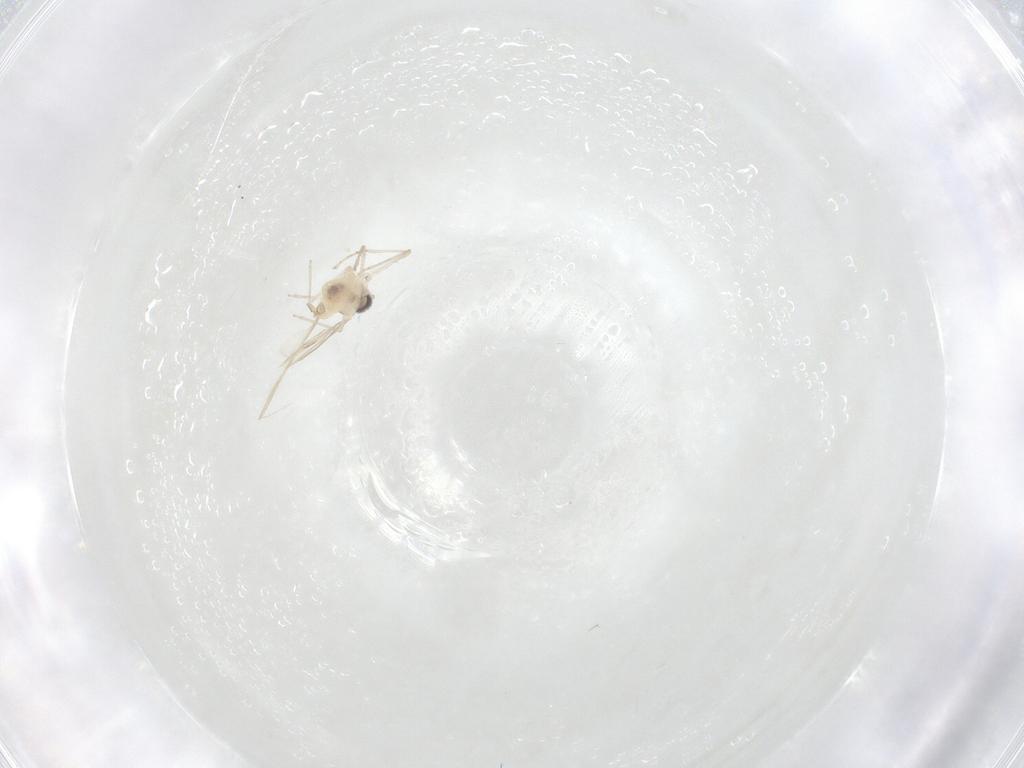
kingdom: Animalia
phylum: Arthropoda
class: Insecta
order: Diptera
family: Cecidomyiidae
